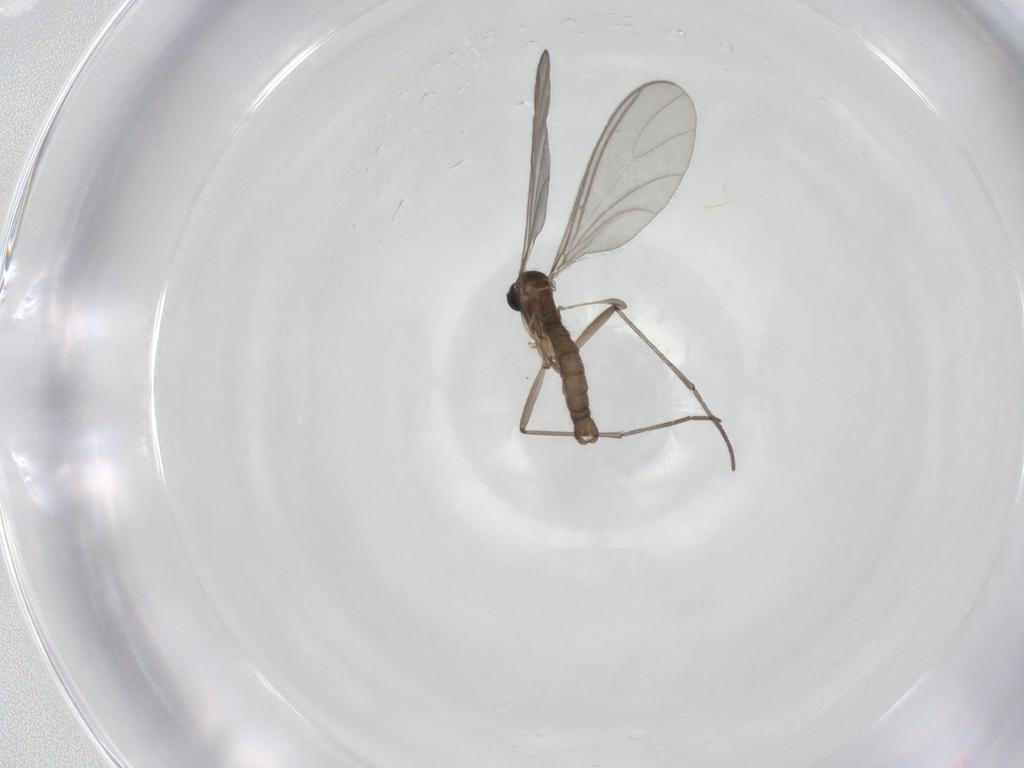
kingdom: Animalia
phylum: Arthropoda
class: Insecta
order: Diptera
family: Sciaridae
